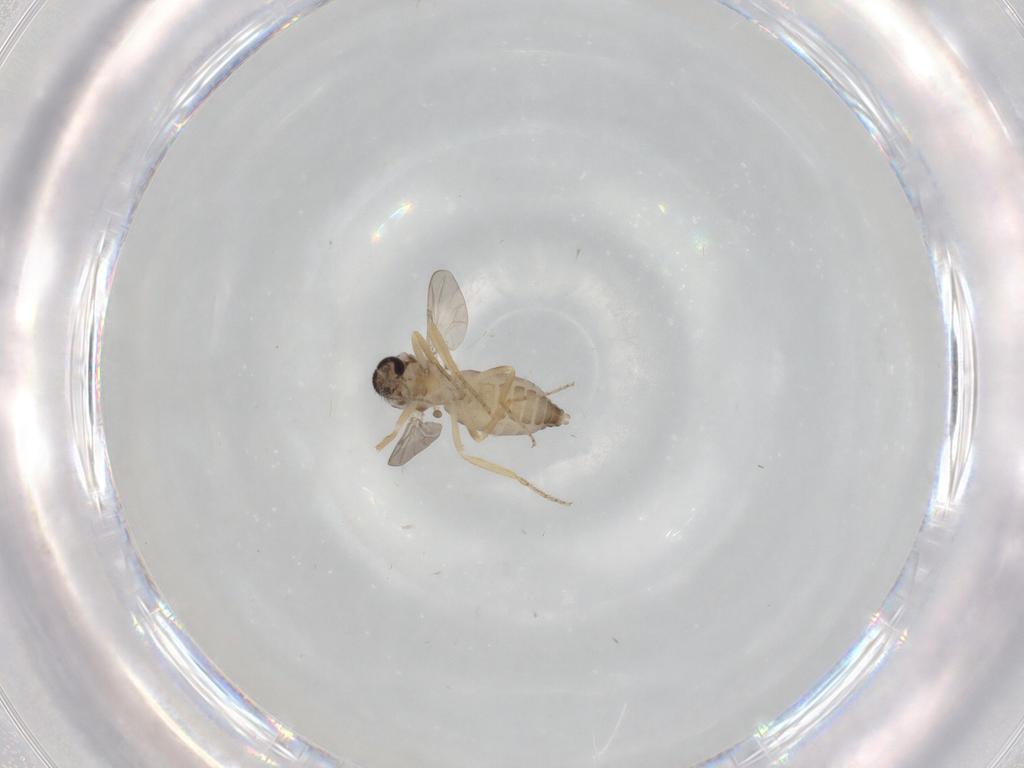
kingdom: Animalia
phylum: Arthropoda
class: Insecta
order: Diptera
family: Ceratopogonidae
